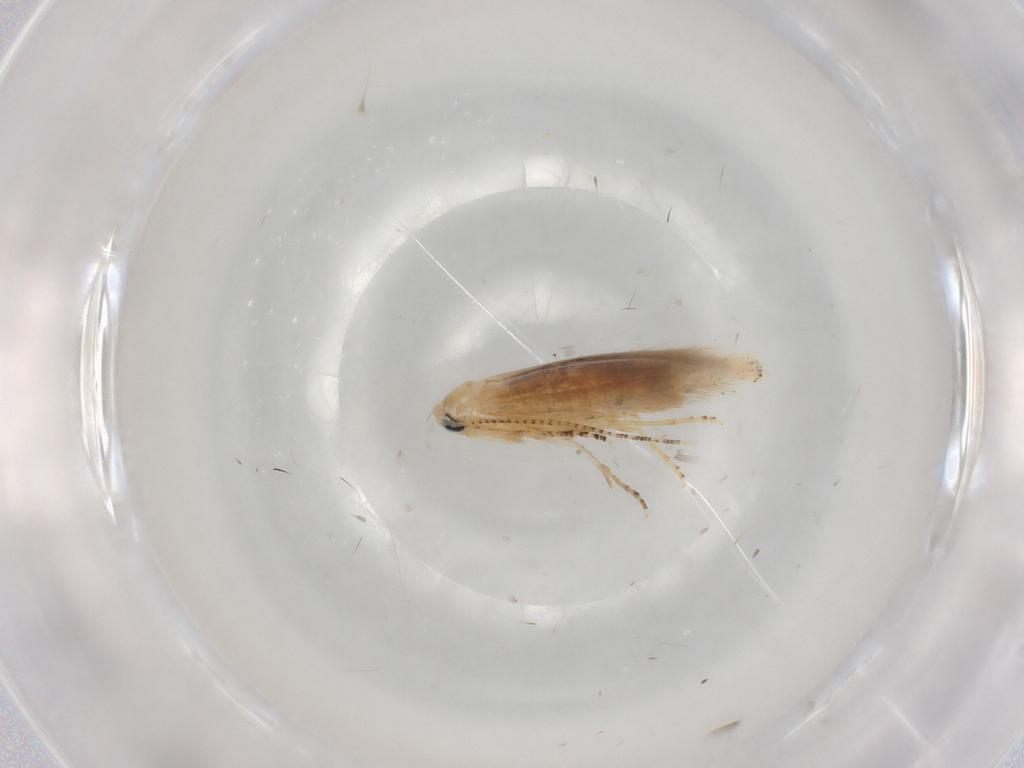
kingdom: Animalia
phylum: Arthropoda
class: Insecta
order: Lepidoptera
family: Bucculatricidae
